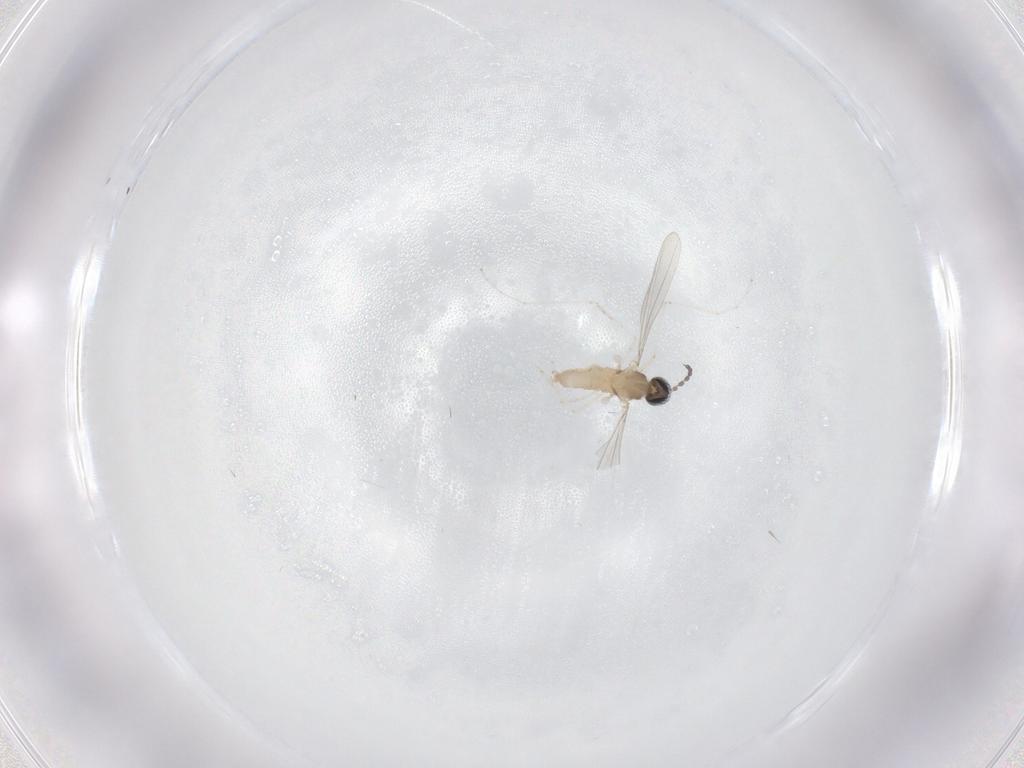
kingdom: Animalia
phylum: Arthropoda
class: Insecta
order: Diptera
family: Cecidomyiidae
